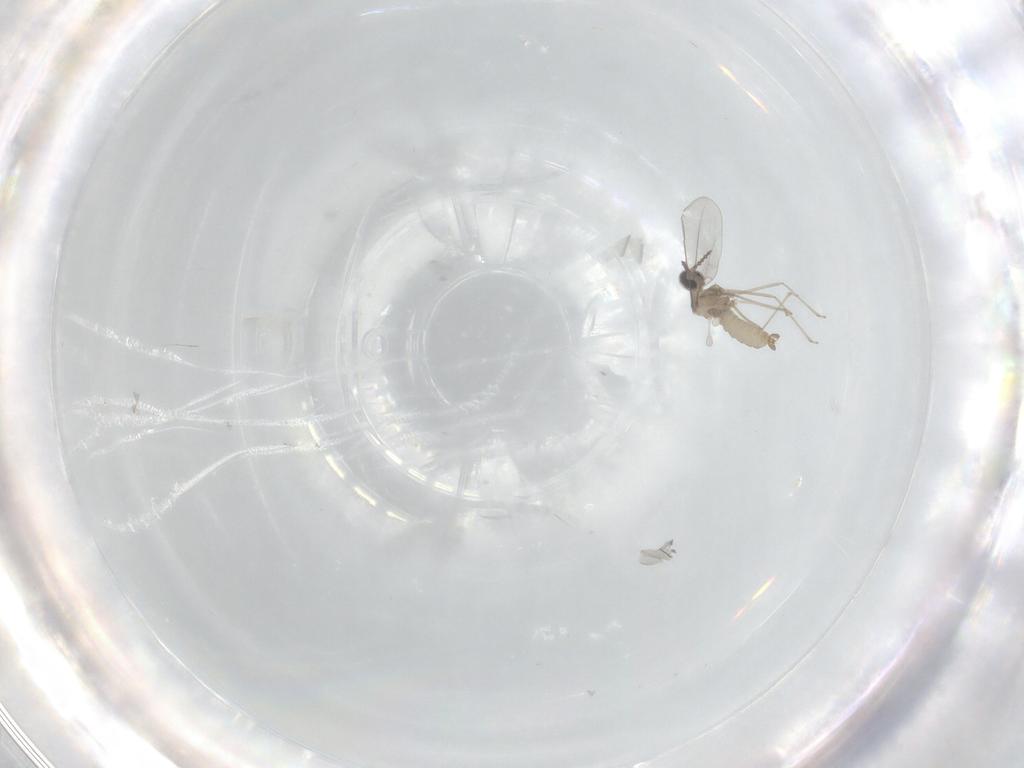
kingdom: Animalia
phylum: Arthropoda
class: Insecta
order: Diptera
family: Cecidomyiidae
